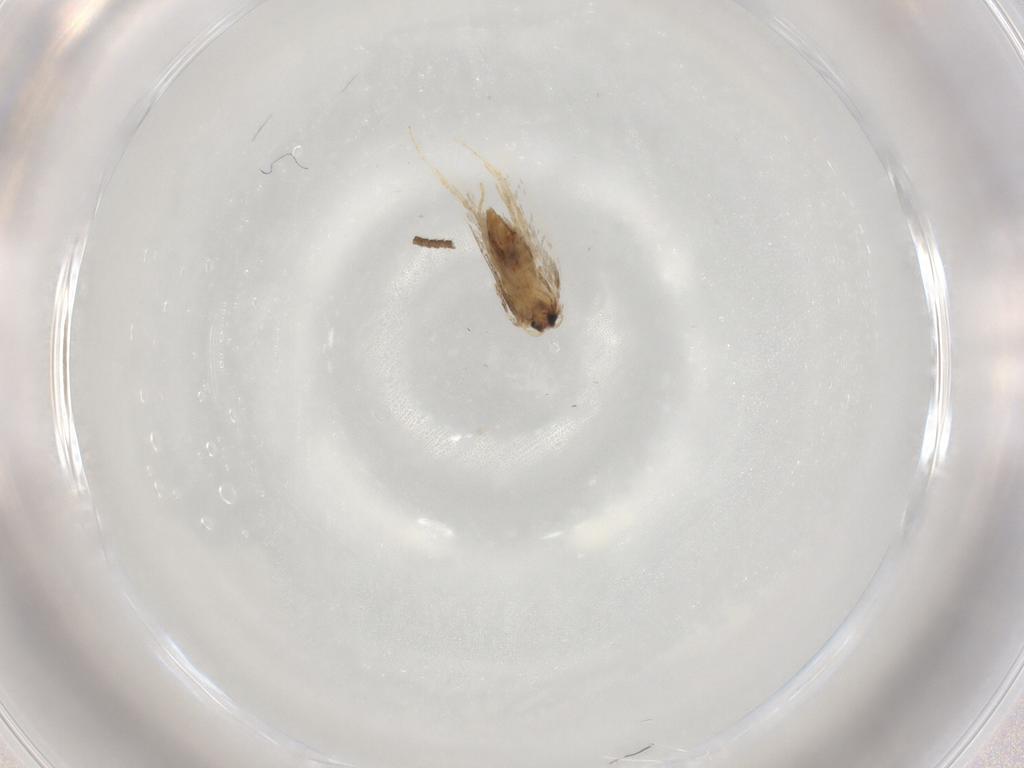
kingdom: Animalia
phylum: Arthropoda
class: Insecta
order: Lepidoptera
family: Nepticulidae
